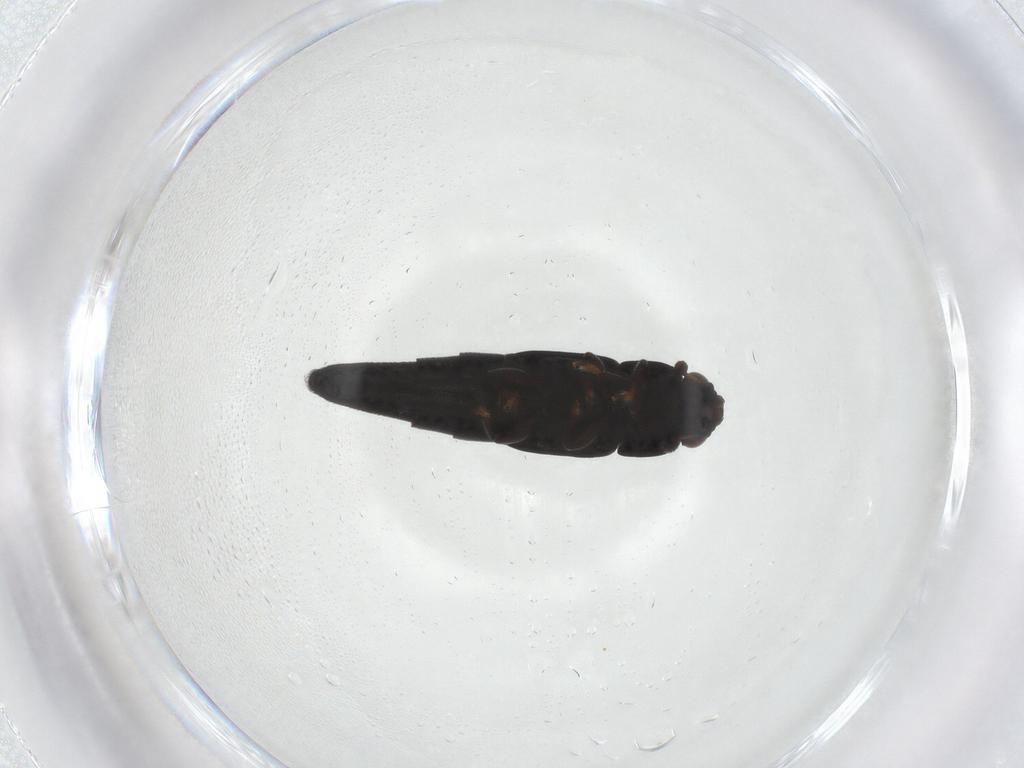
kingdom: Animalia
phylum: Arthropoda
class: Insecta
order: Coleoptera
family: Nitidulidae
